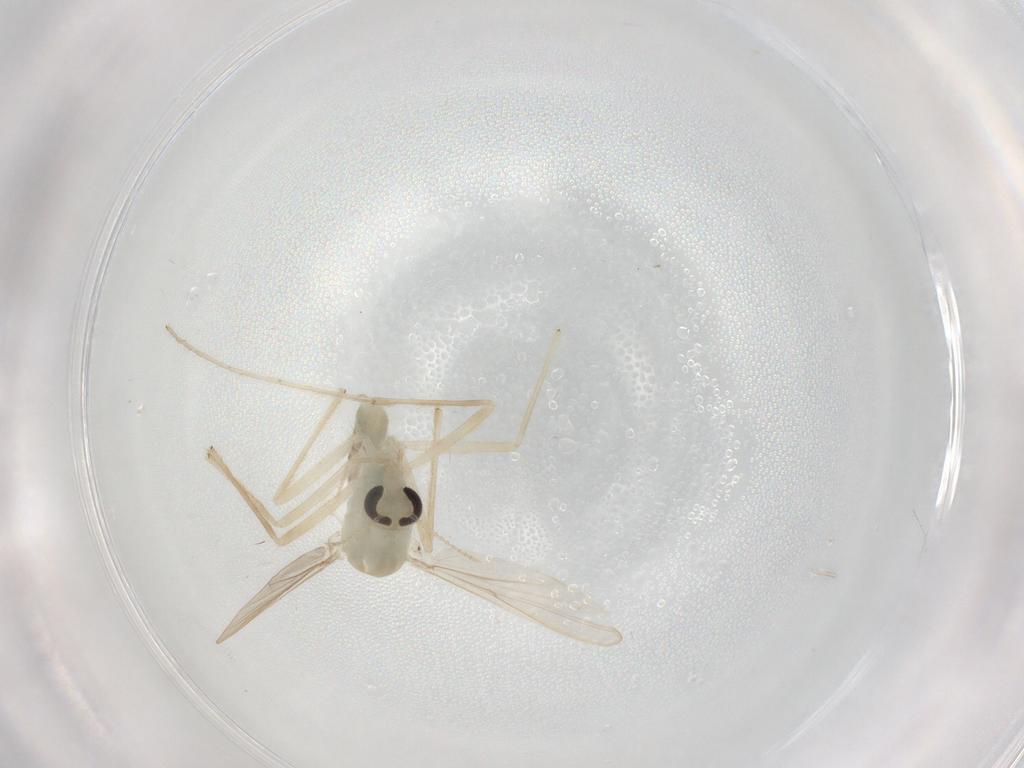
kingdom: Animalia
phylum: Arthropoda
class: Insecta
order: Diptera
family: Chironomidae
